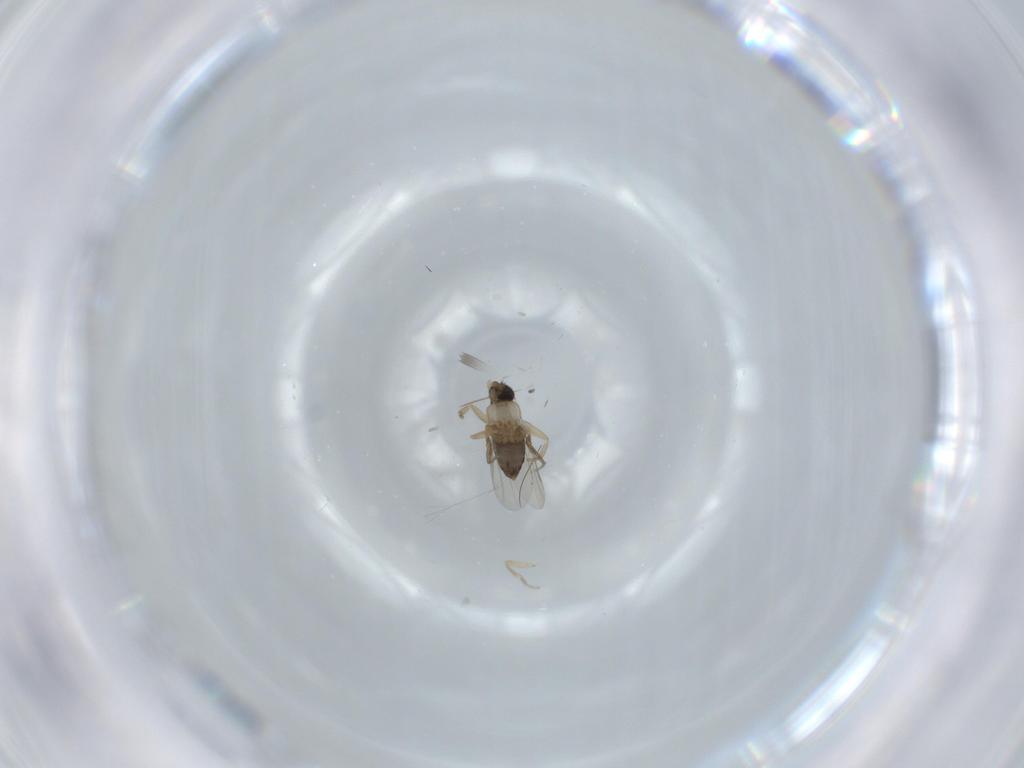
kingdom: Animalia
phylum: Arthropoda
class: Insecta
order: Diptera
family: Phoridae
